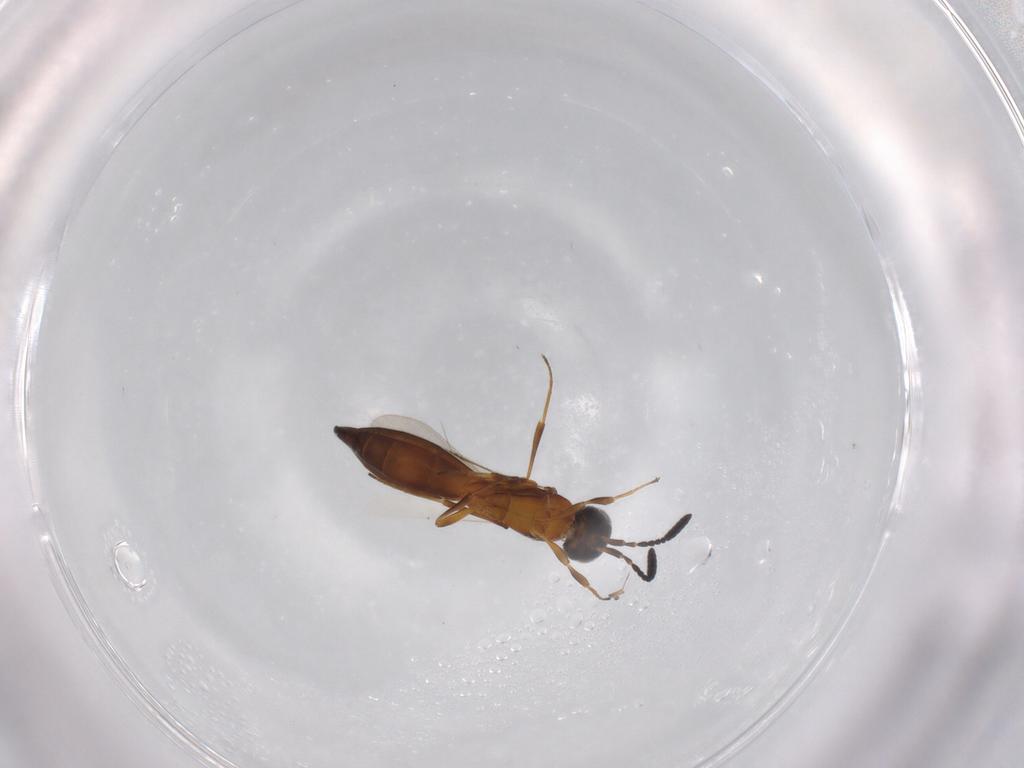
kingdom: Animalia
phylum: Arthropoda
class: Insecta
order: Hymenoptera
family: Scelionidae
